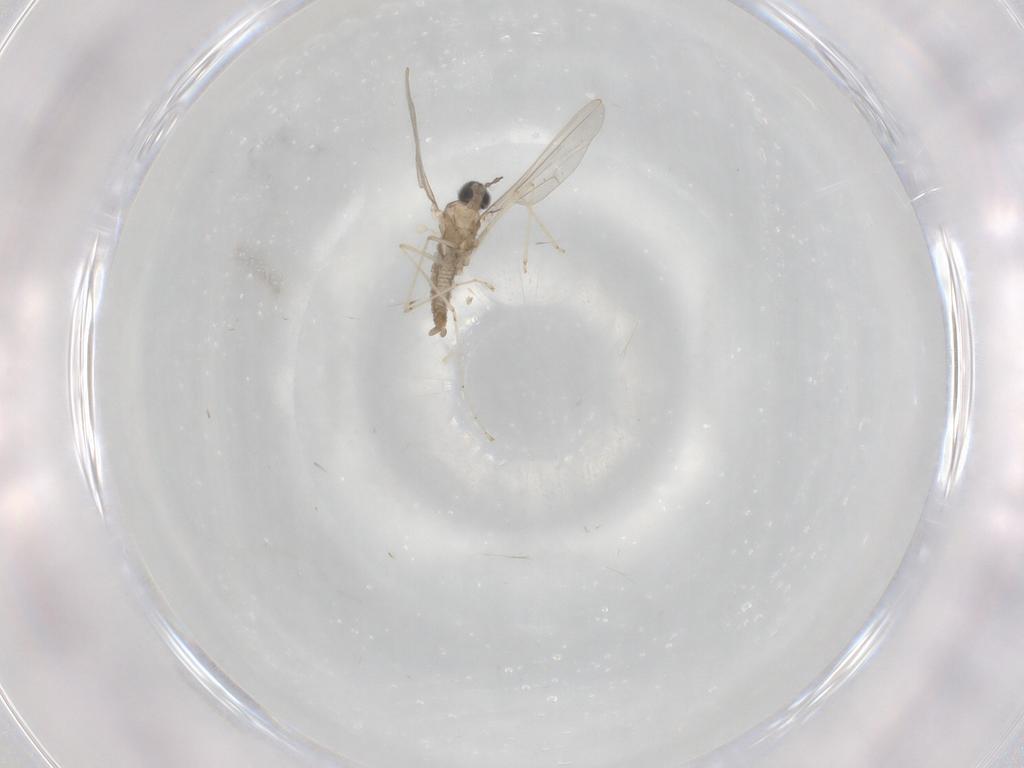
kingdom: Animalia
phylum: Arthropoda
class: Insecta
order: Diptera
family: Cecidomyiidae
